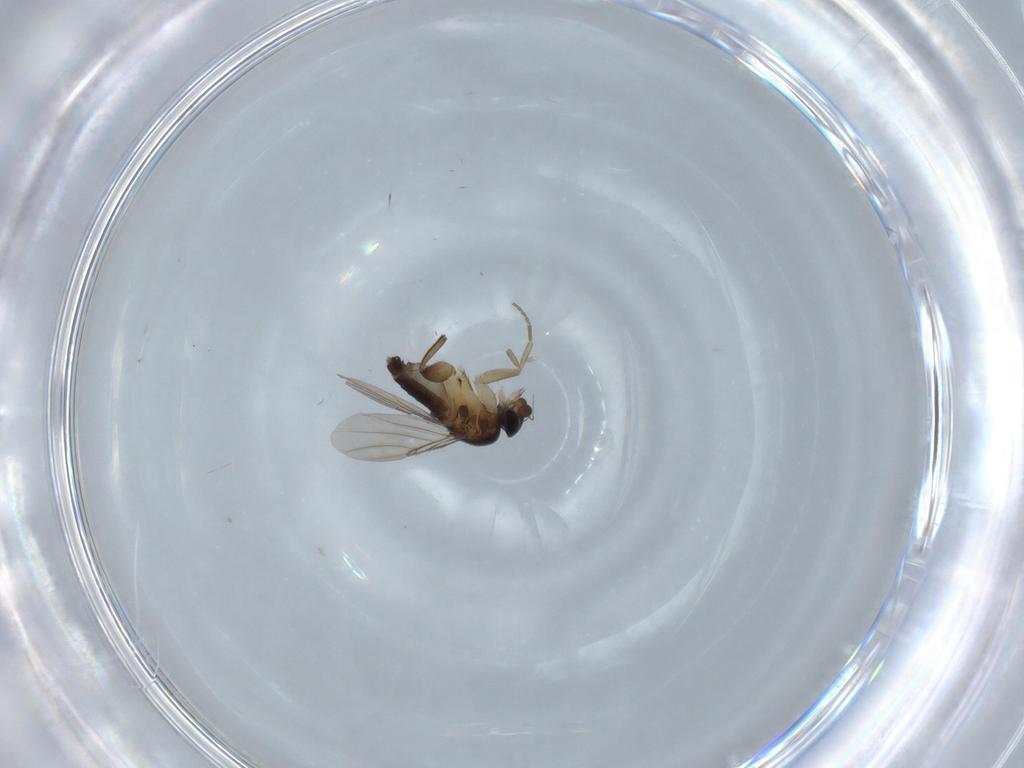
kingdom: Animalia
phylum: Arthropoda
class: Insecta
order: Diptera
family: Phoridae
